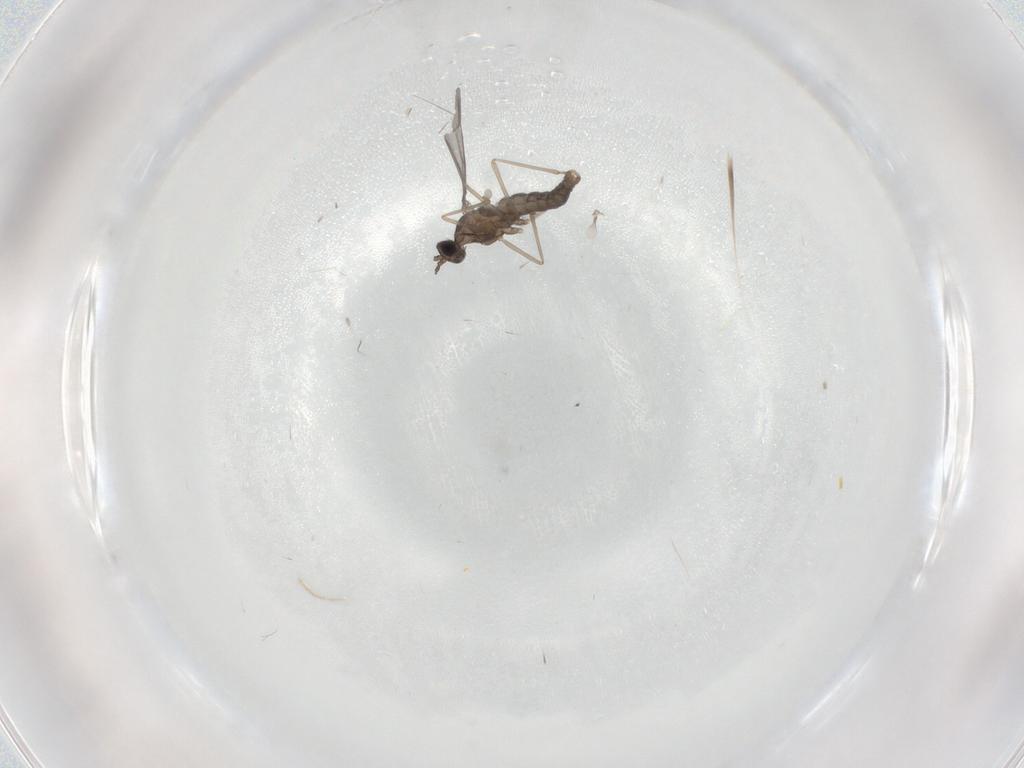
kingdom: Animalia
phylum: Arthropoda
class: Insecta
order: Diptera
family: Cecidomyiidae
